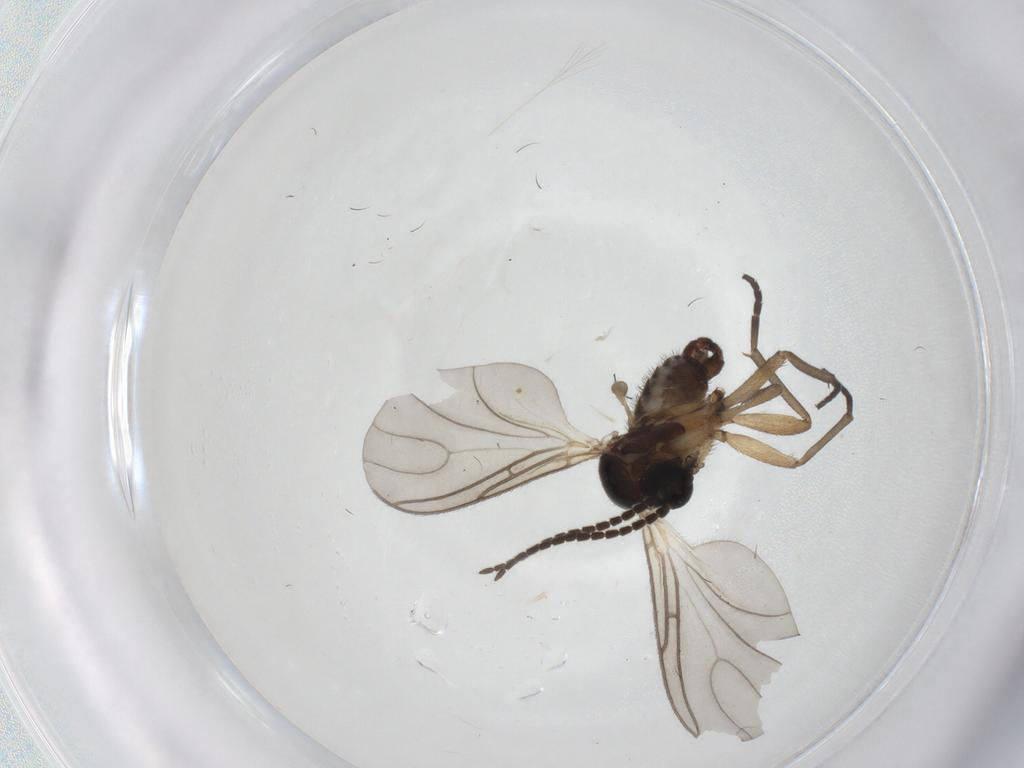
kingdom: Animalia
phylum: Arthropoda
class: Insecta
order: Diptera
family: Sciaridae
